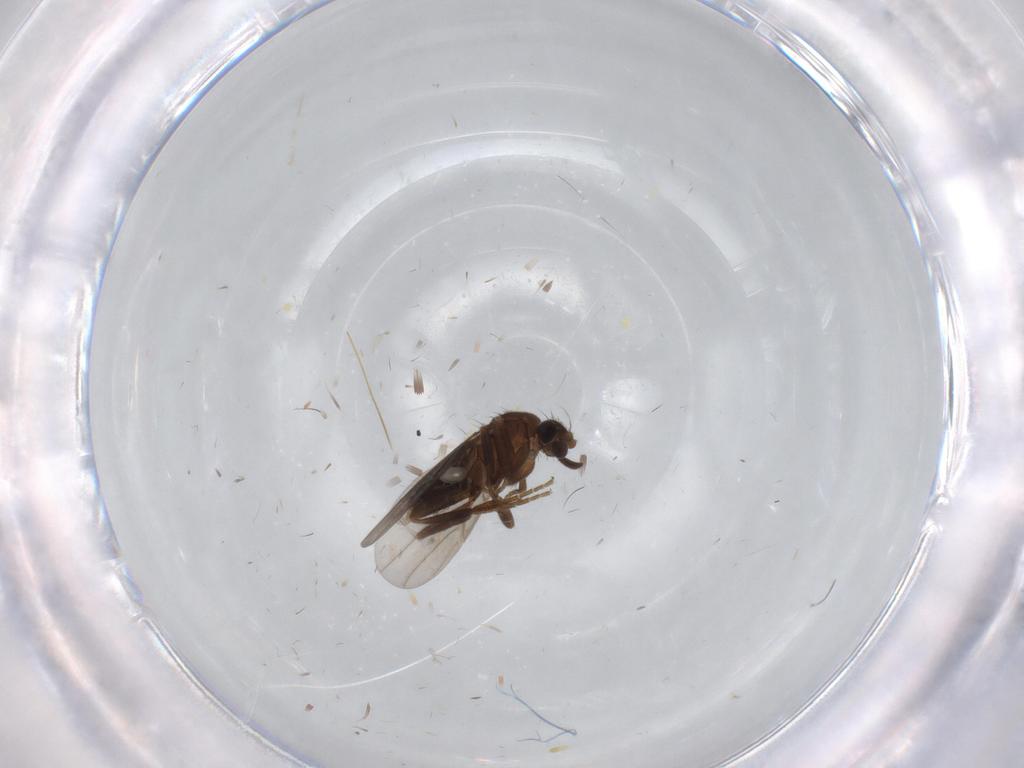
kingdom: Animalia
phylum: Arthropoda
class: Insecta
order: Diptera
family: Sciaridae
